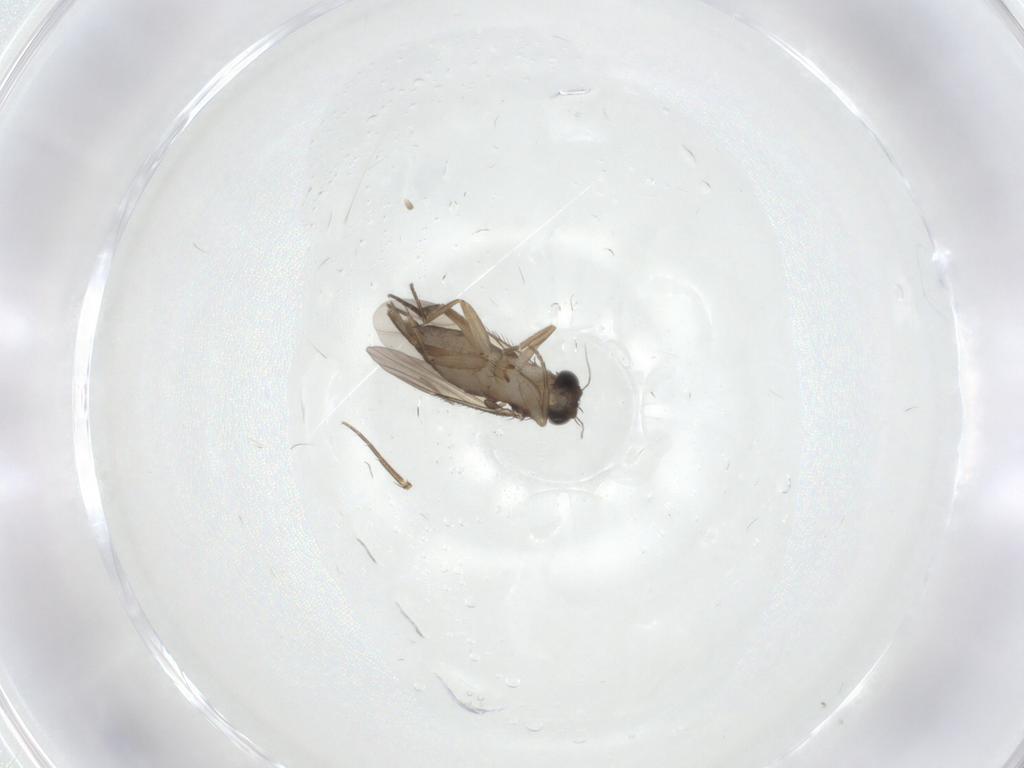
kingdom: Animalia
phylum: Arthropoda
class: Insecta
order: Diptera
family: Phoridae
